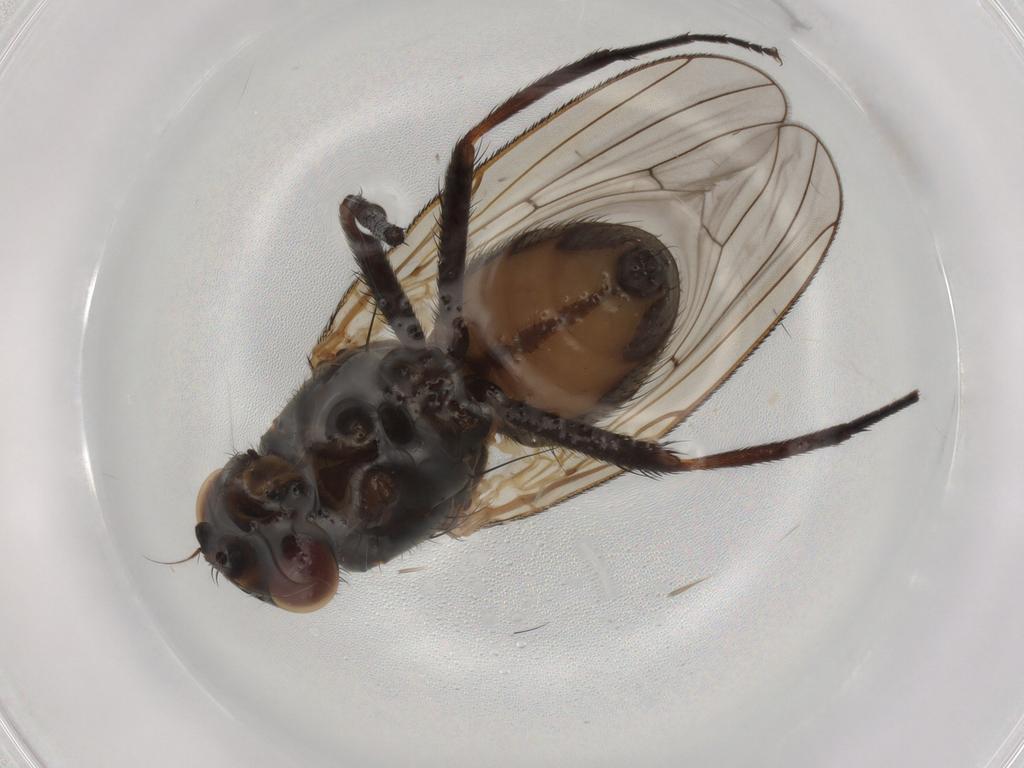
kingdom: Animalia
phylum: Arthropoda
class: Insecta
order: Diptera
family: Anthomyiidae
